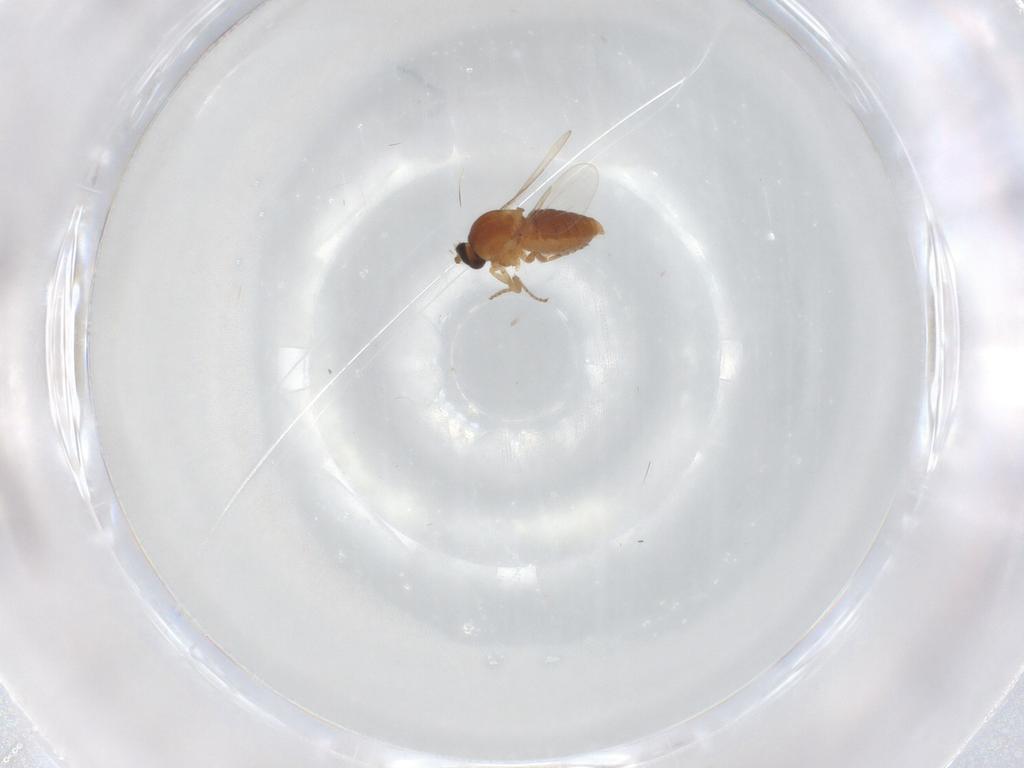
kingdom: Animalia
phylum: Arthropoda
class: Insecta
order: Diptera
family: Ceratopogonidae
